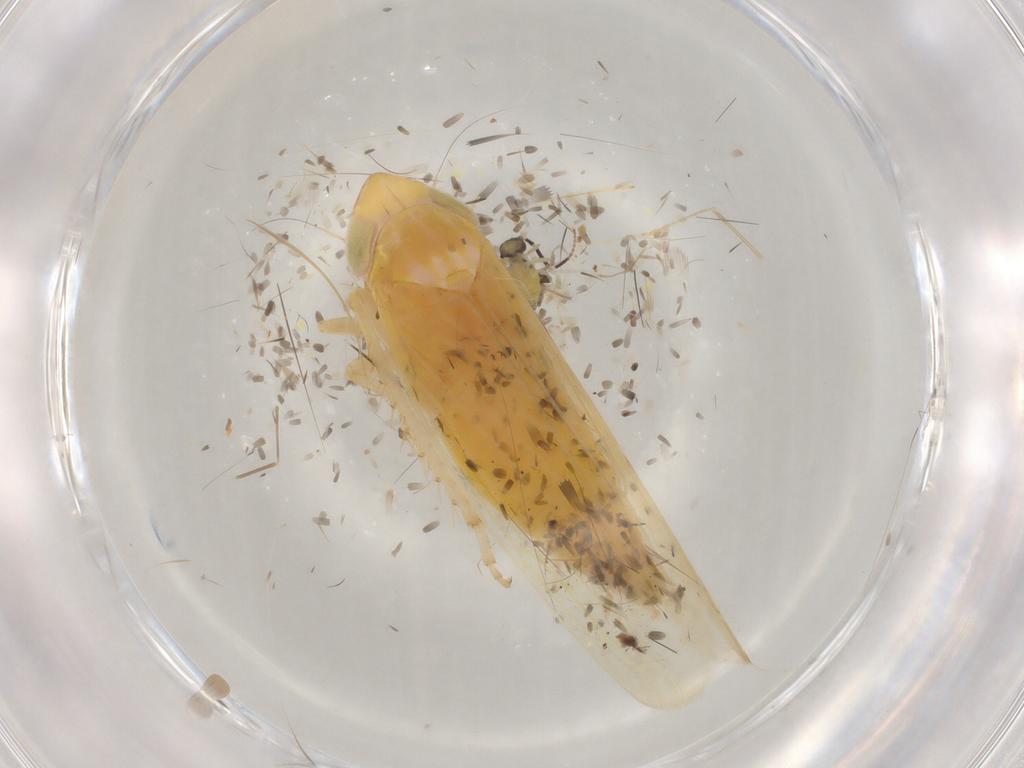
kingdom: Animalia
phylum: Arthropoda
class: Insecta
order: Hemiptera
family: Cicadellidae
